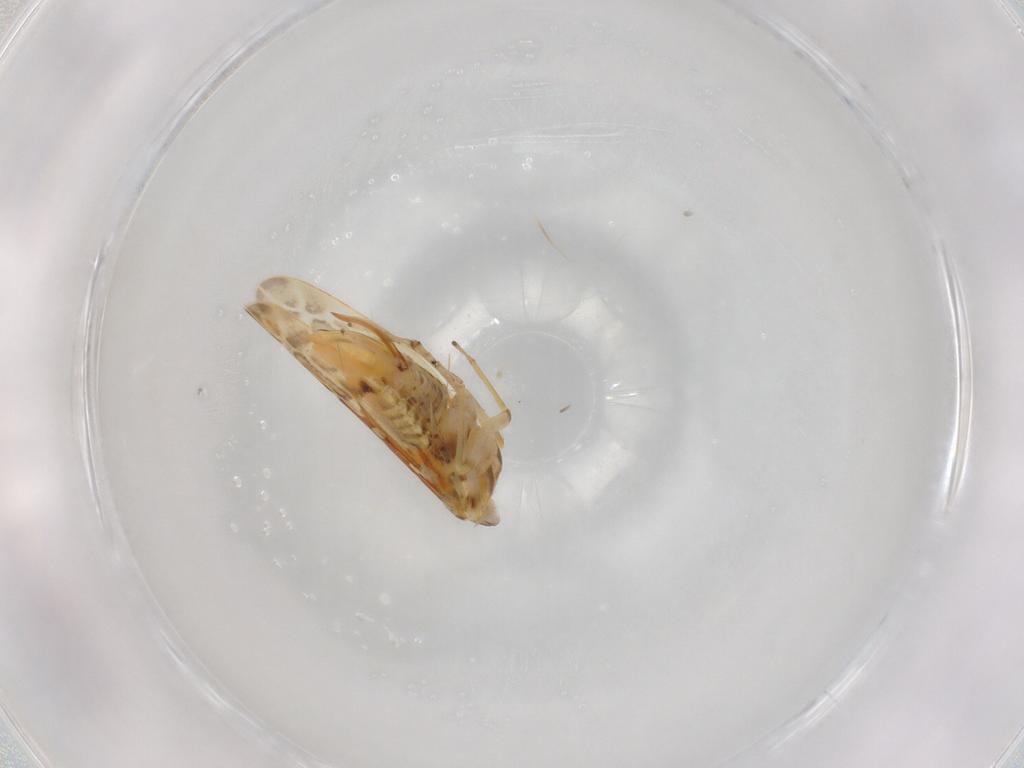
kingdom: Animalia
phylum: Arthropoda
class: Insecta
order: Hemiptera
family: Cicadellidae
